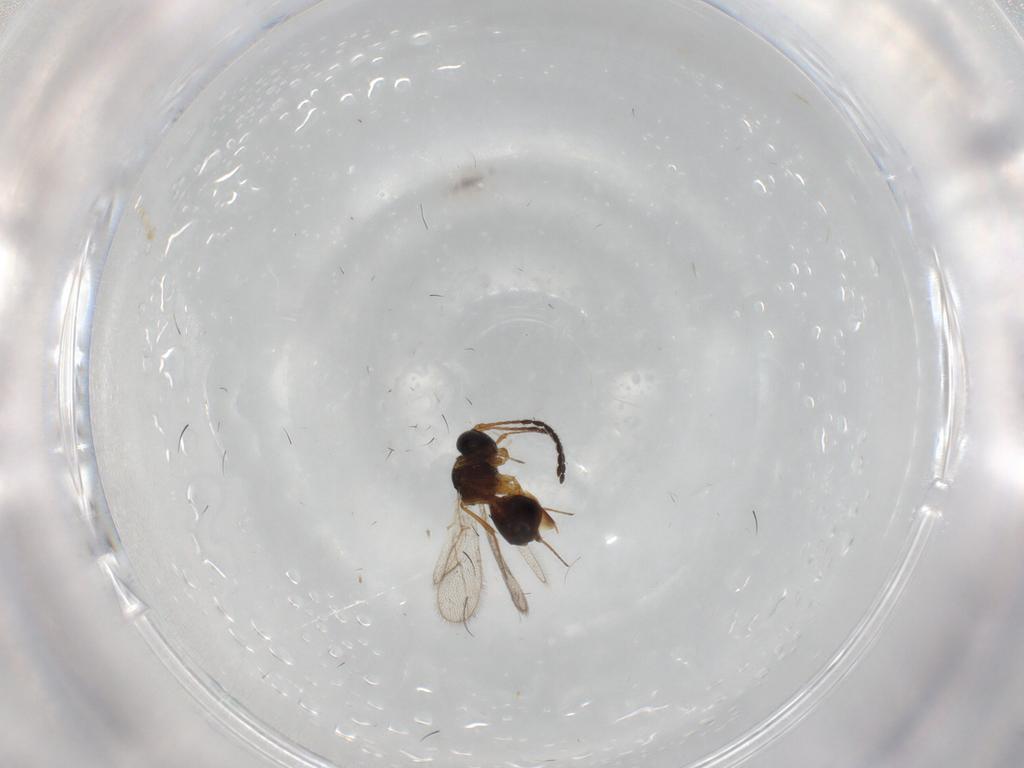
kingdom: Animalia
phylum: Arthropoda
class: Insecta
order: Hymenoptera
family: Figitidae
